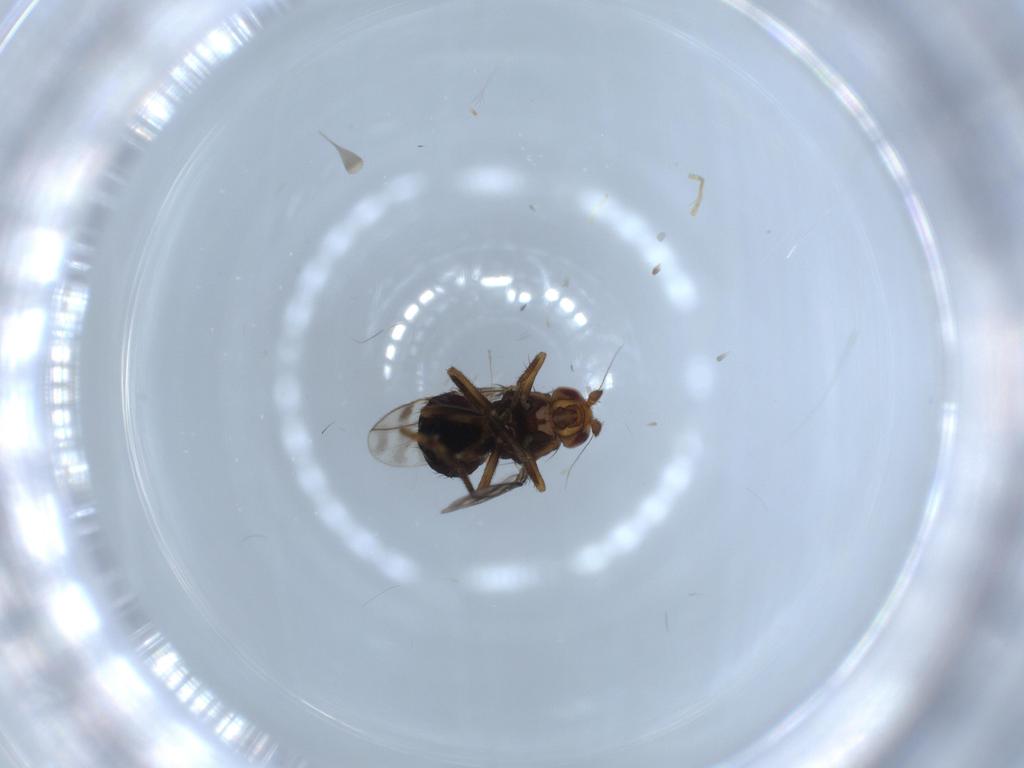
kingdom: Animalia
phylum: Arthropoda
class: Insecta
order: Diptera
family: Sphaeroceridae
